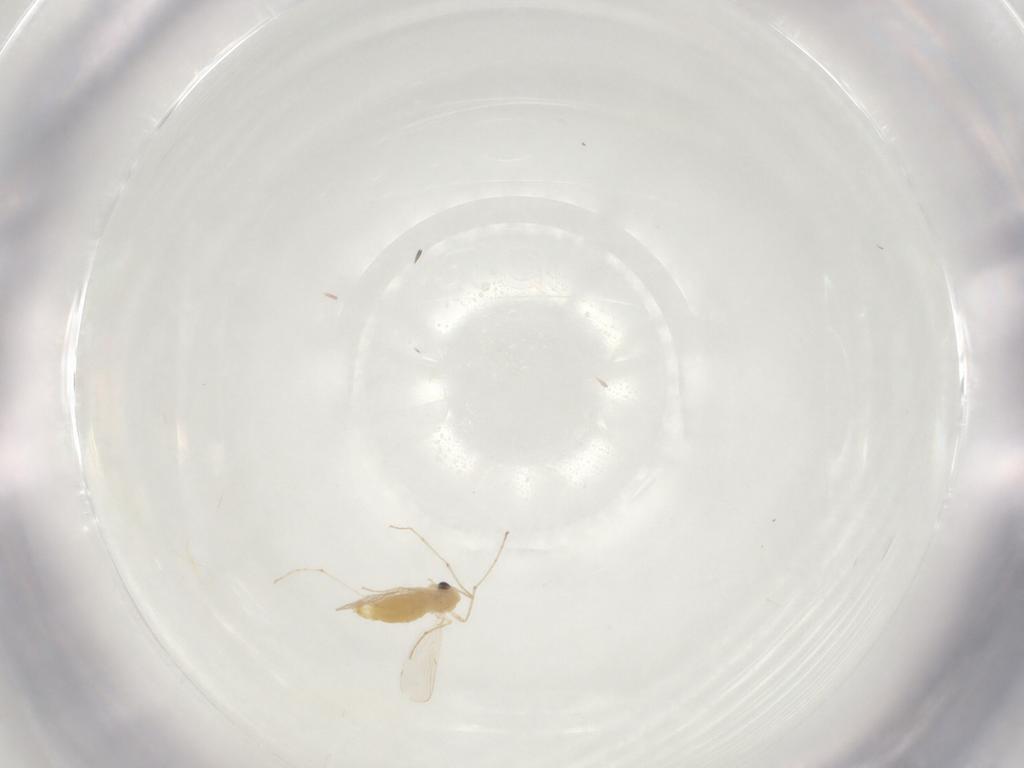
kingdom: Animalia
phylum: Arthropoda
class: Insecta
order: Diptera
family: Chironomidae
